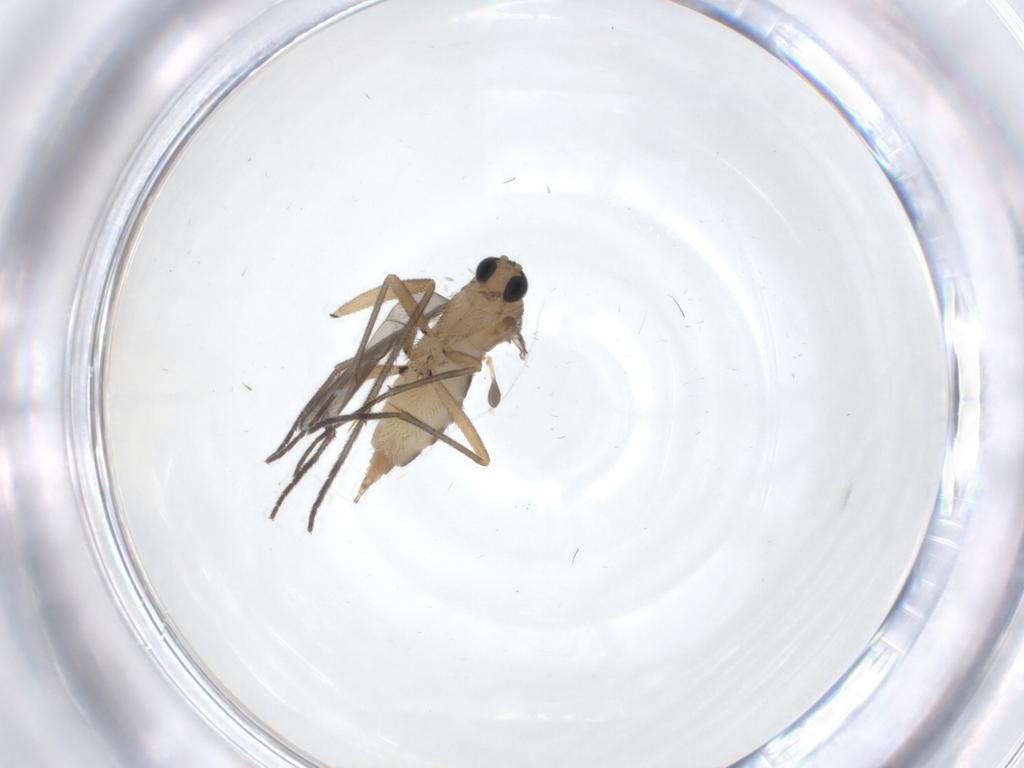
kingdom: Animalia
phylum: Arthropoda
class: Insecta
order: Diptera
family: Sciaridae
